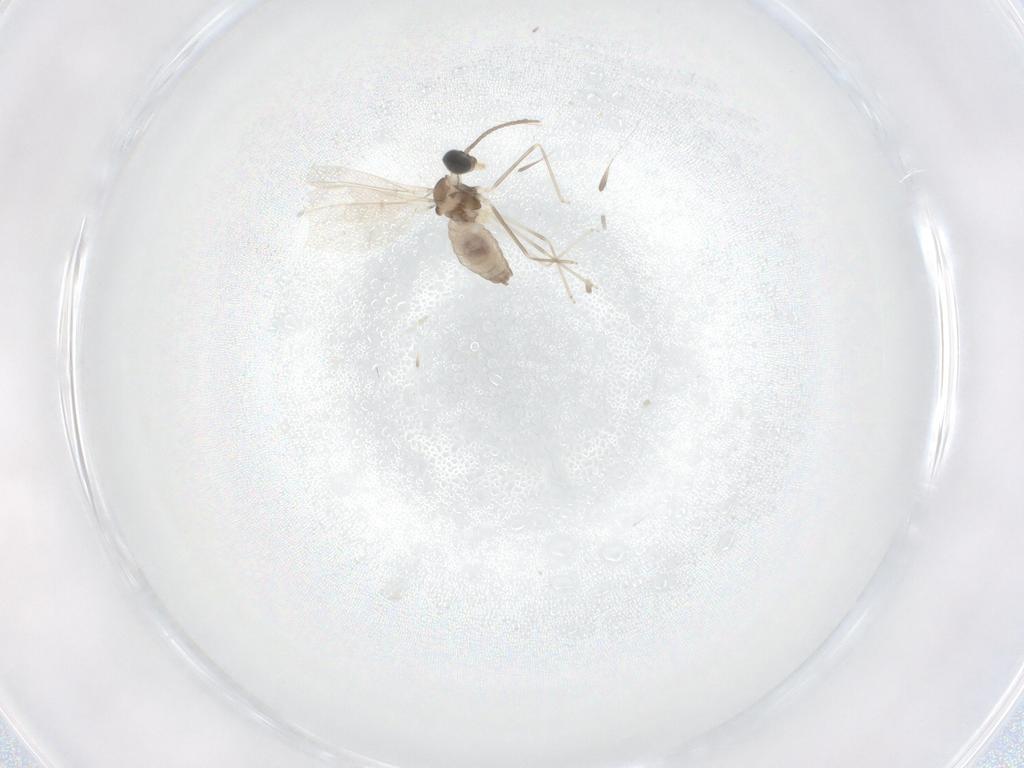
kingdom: Animalia
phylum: Arthropoda
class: Insecta
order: Diptera
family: Cecidomyiidae
